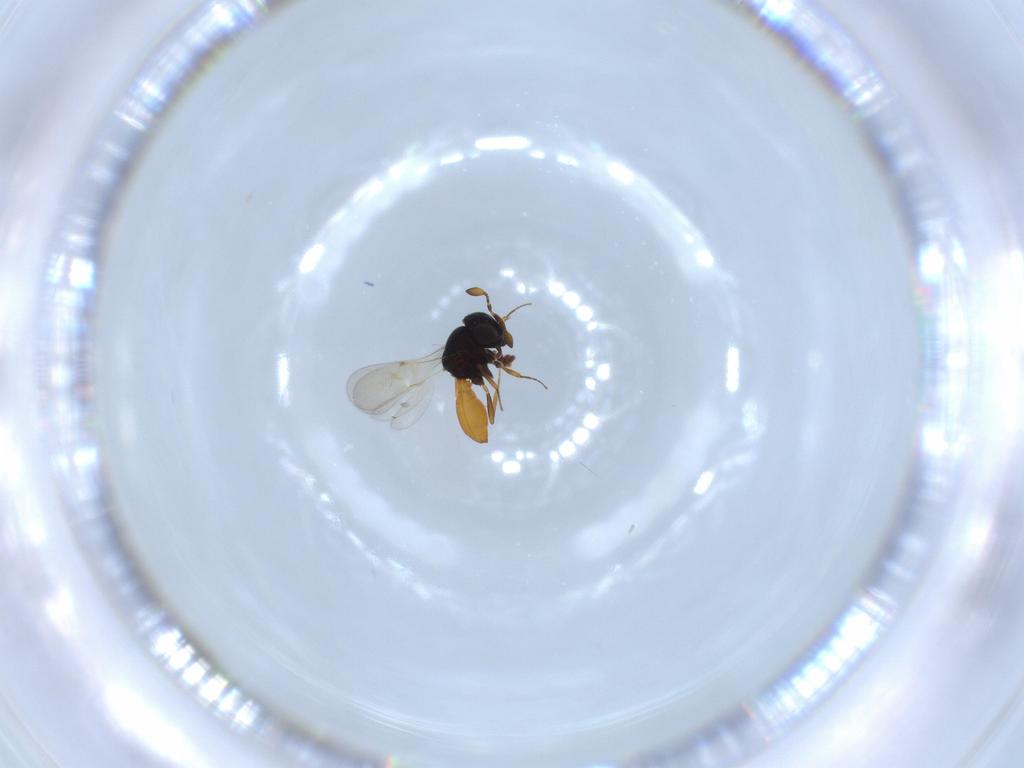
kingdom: Animalia
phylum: Arthropoda
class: Insecta
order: Hymenoptera
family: Scelionidae
